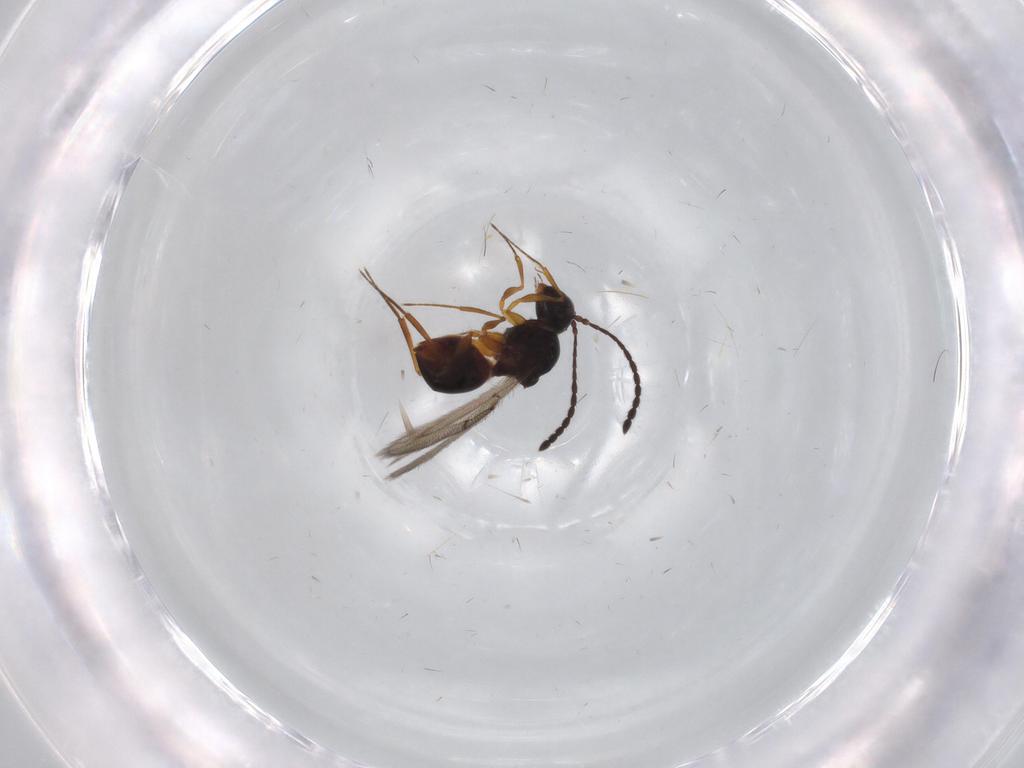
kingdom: Animalia
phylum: Arthropoda
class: Insecta
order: Hymenoptera
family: Figitidae
